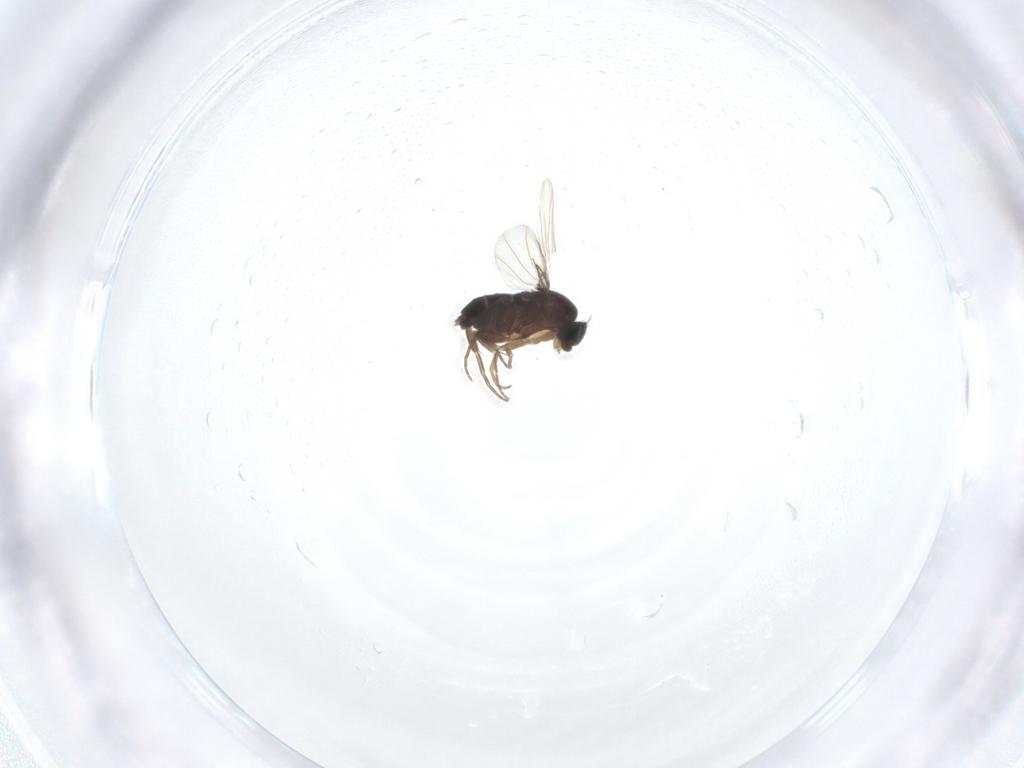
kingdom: Animalia
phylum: Arthropoda
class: Insecta
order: Diptera
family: Phoridae
